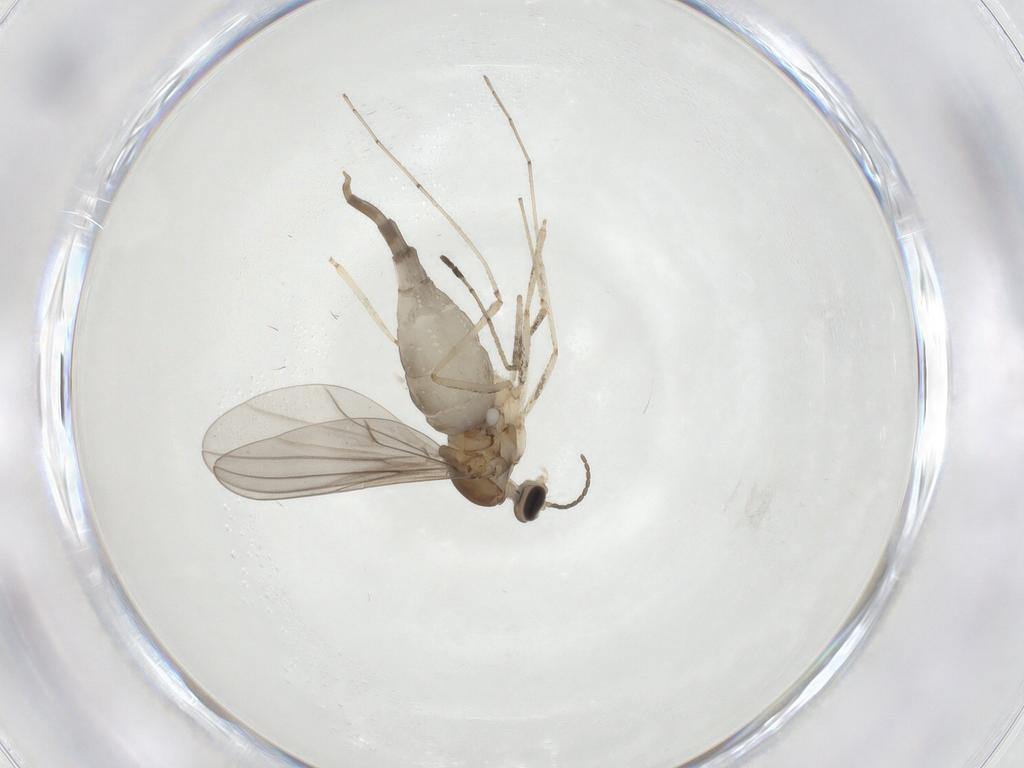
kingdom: Animalia
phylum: Arthropoda
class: Insecta
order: Diptera
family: Cecidomyiidae
